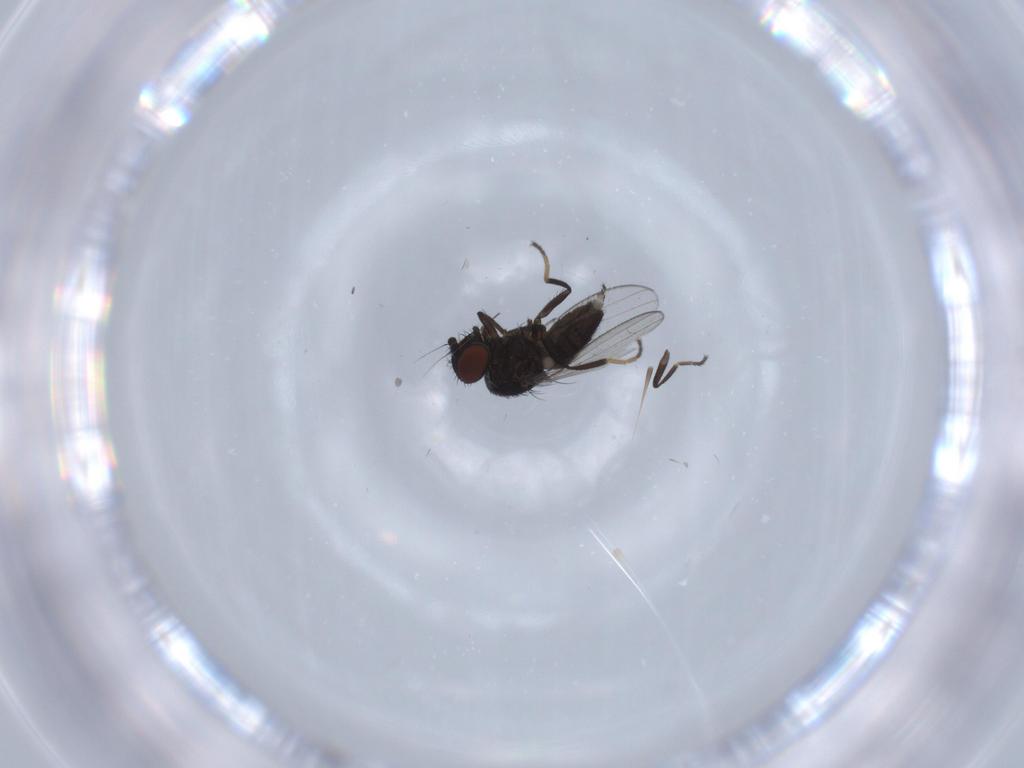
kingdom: Animalia
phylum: Arthropoda
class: Insecta
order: Diptera
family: Milichiidae
